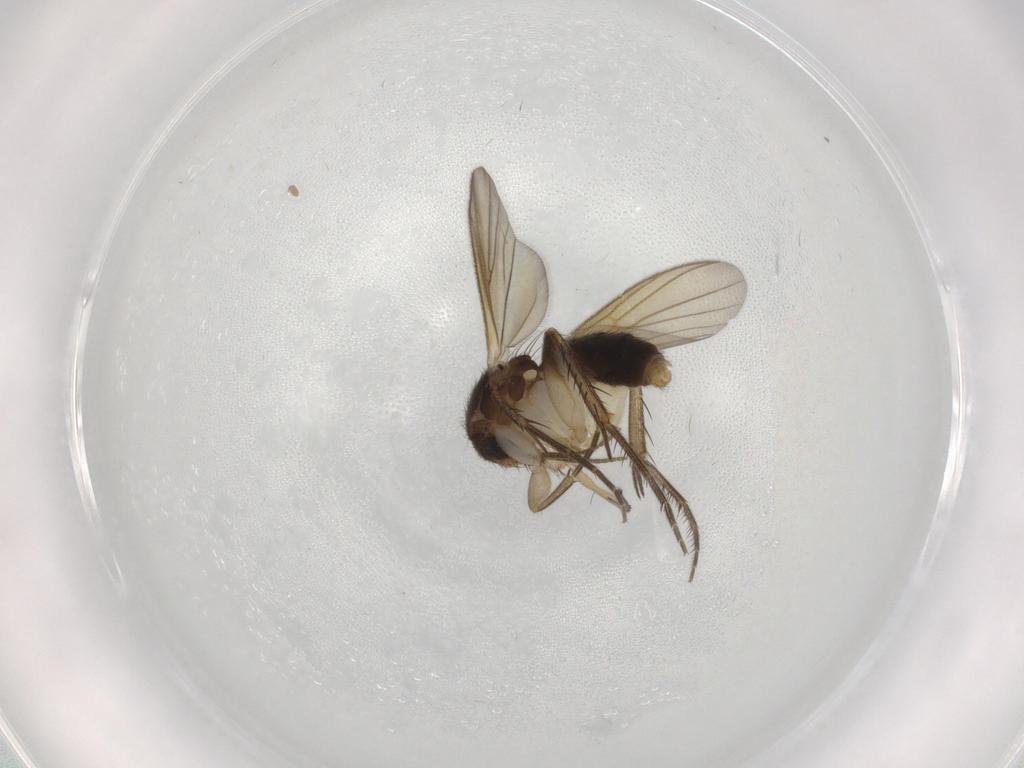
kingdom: Animalia
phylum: Arthropoda
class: Insecta
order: Diptera
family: Mycetophilidae
